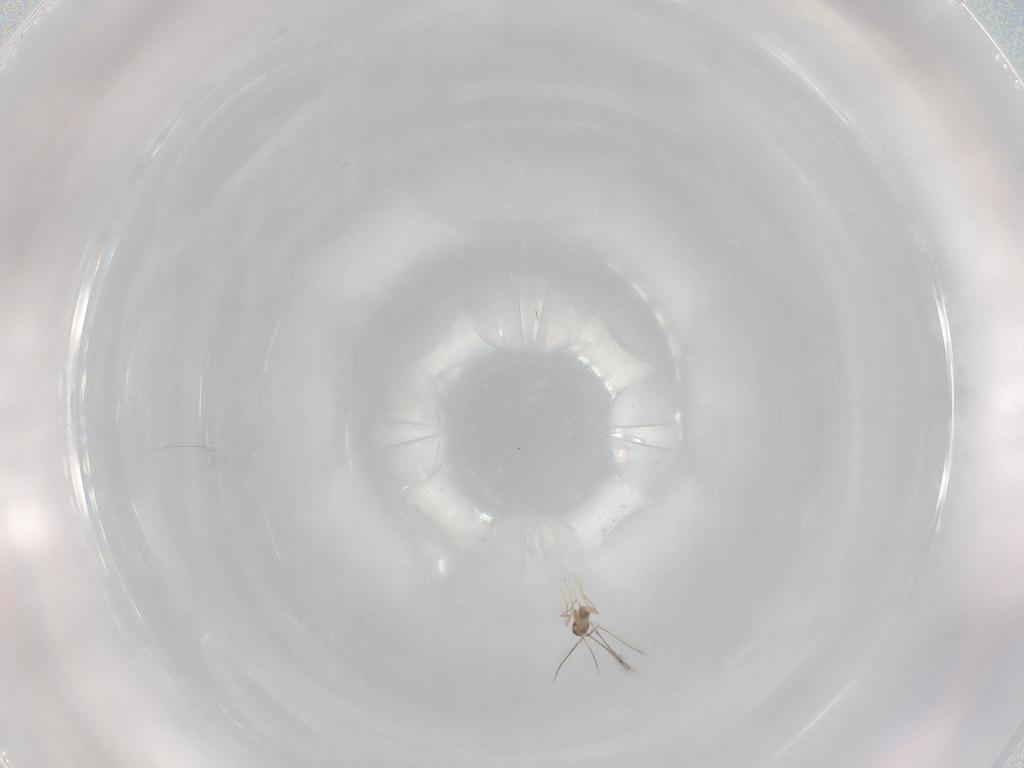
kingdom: Animalia
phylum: Arthropoda
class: Insecta
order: Hymenoptera
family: Mymaridae
